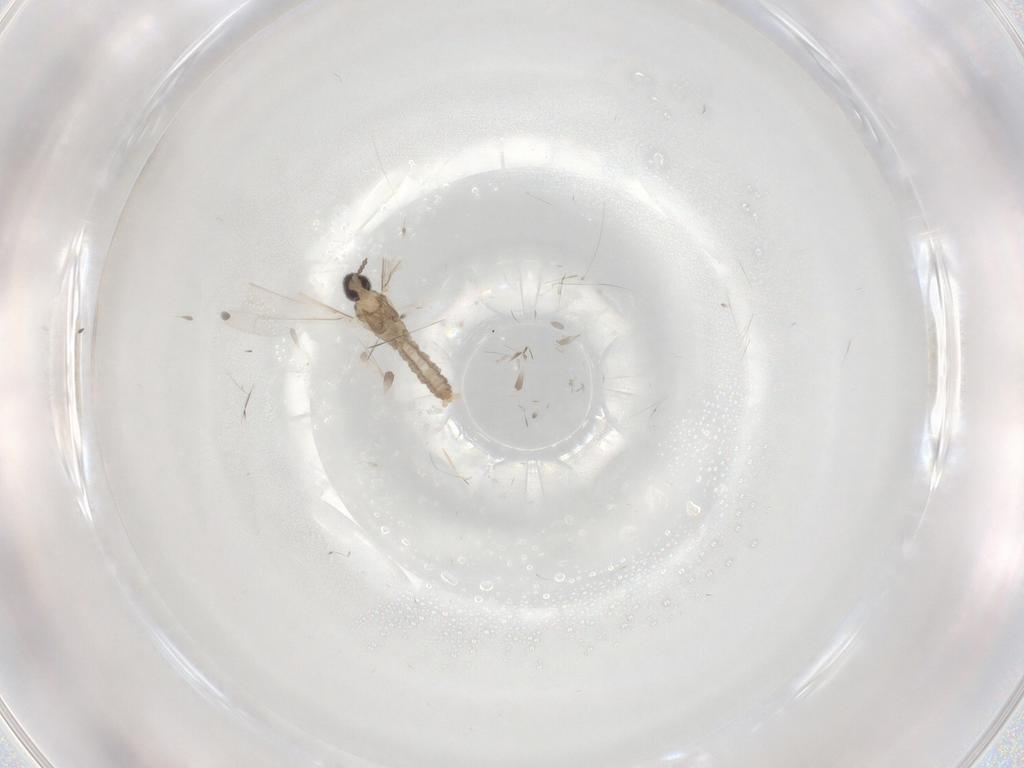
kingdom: Animalia
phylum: Arthropoda
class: Insecta
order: Diptera
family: Cecidomyiidae
